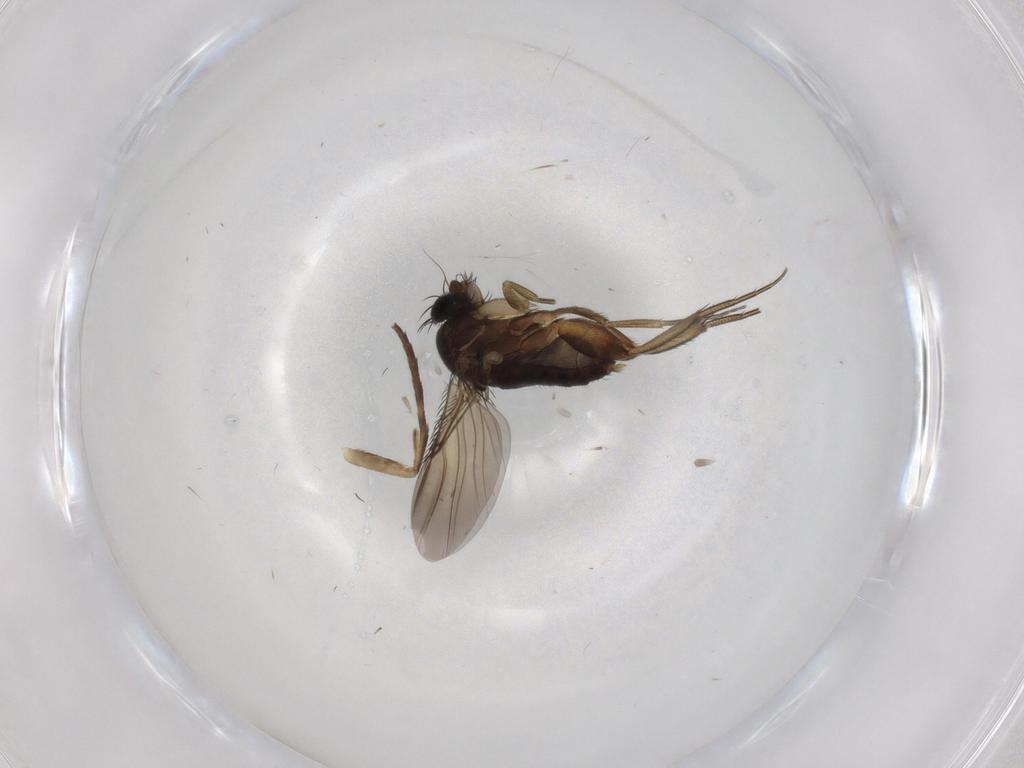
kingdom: Animalia
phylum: Arthropoda
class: Insecta
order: Diptera
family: Phoridae
